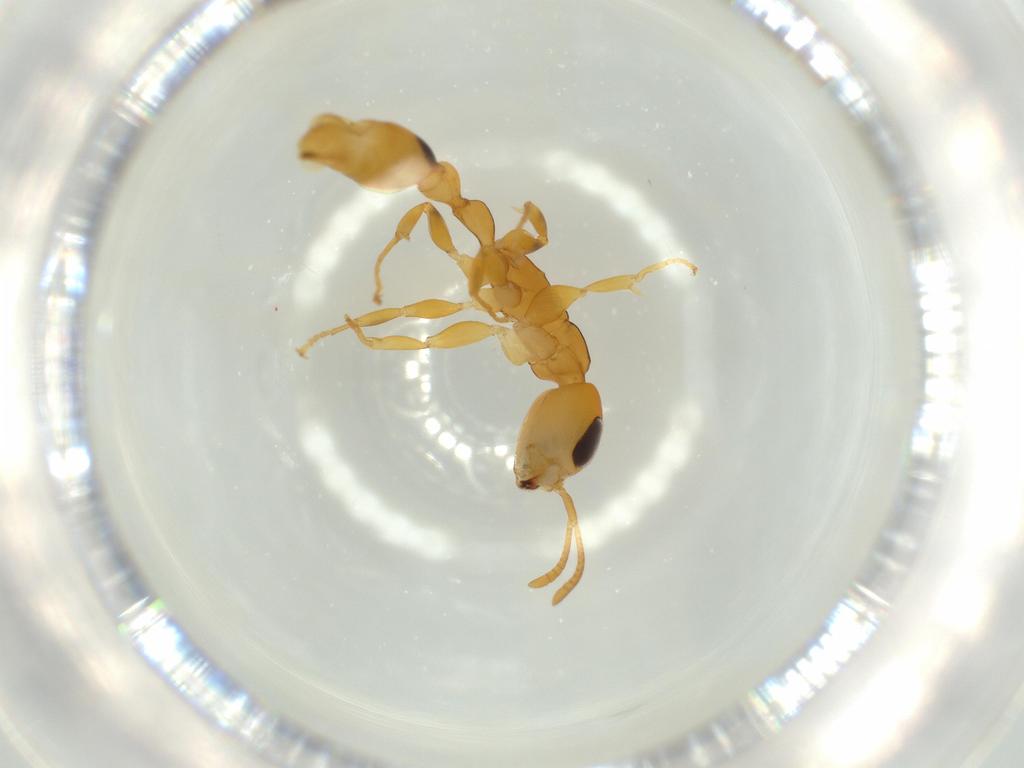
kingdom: Animalia
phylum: Arthropoda
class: Insecta
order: Hymenoptera
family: Formicidae
